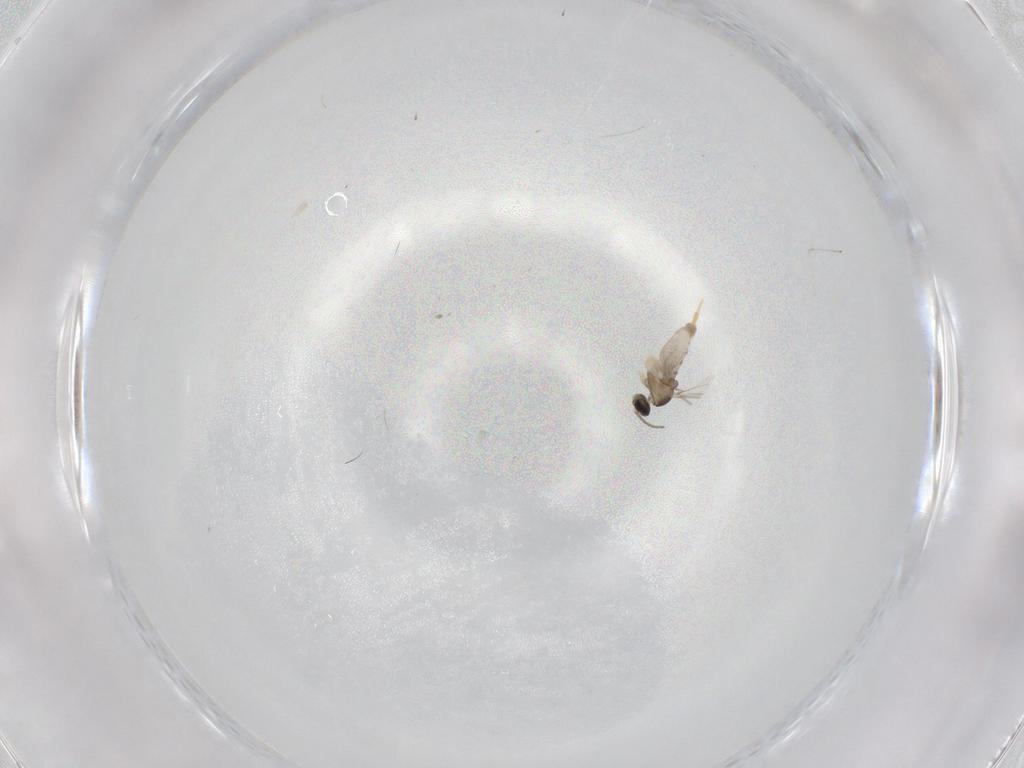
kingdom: Animalia
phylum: Arthropoda
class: Insecta
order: Diptera
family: Cecidomyiidae
